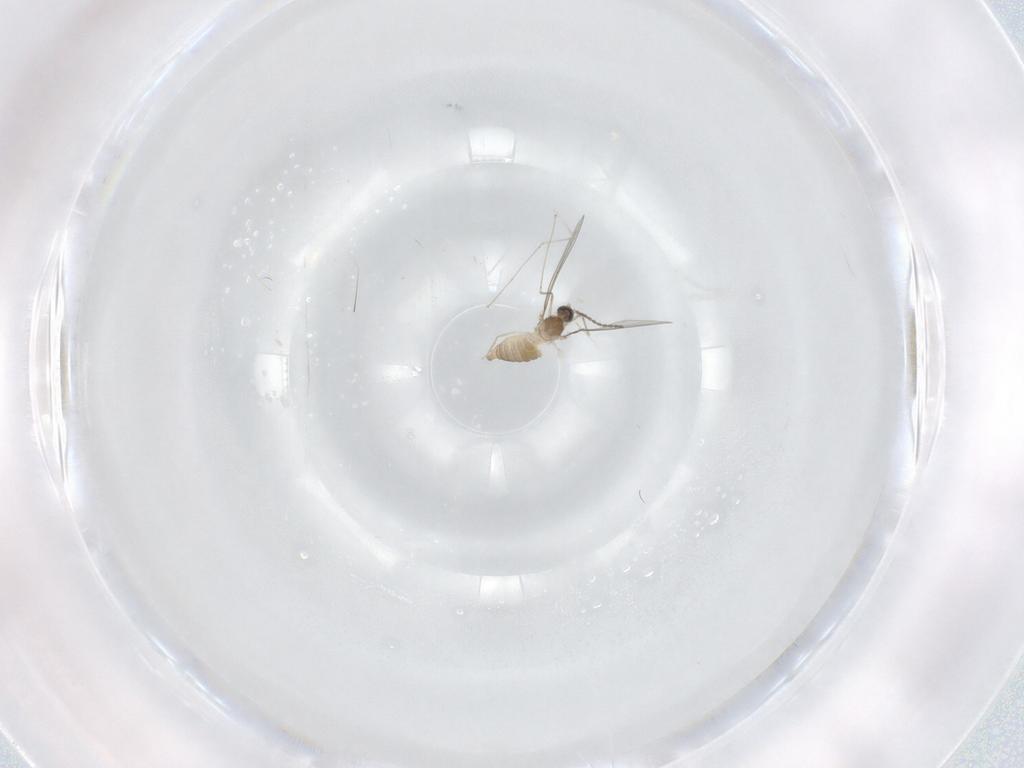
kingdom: Animalia
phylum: Arthropoda
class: Insecta
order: Diptera
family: Cecidomyiidae
